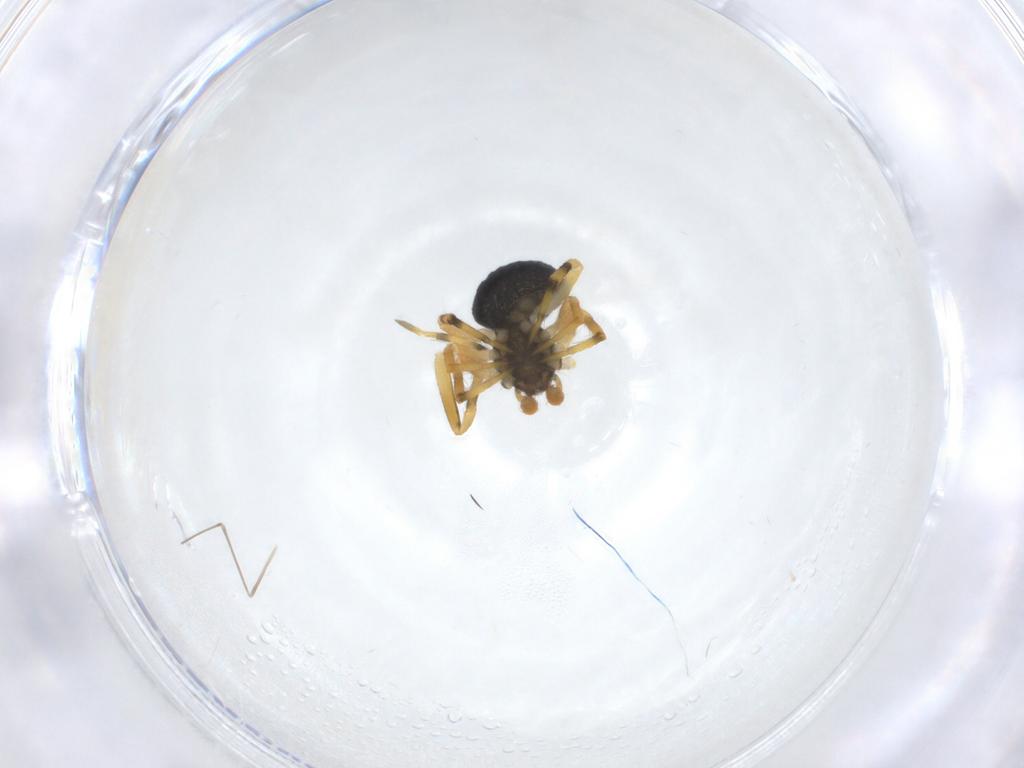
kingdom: Animalia
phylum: Arthropoda
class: Arachnida
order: Araneae
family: Theridiidae
